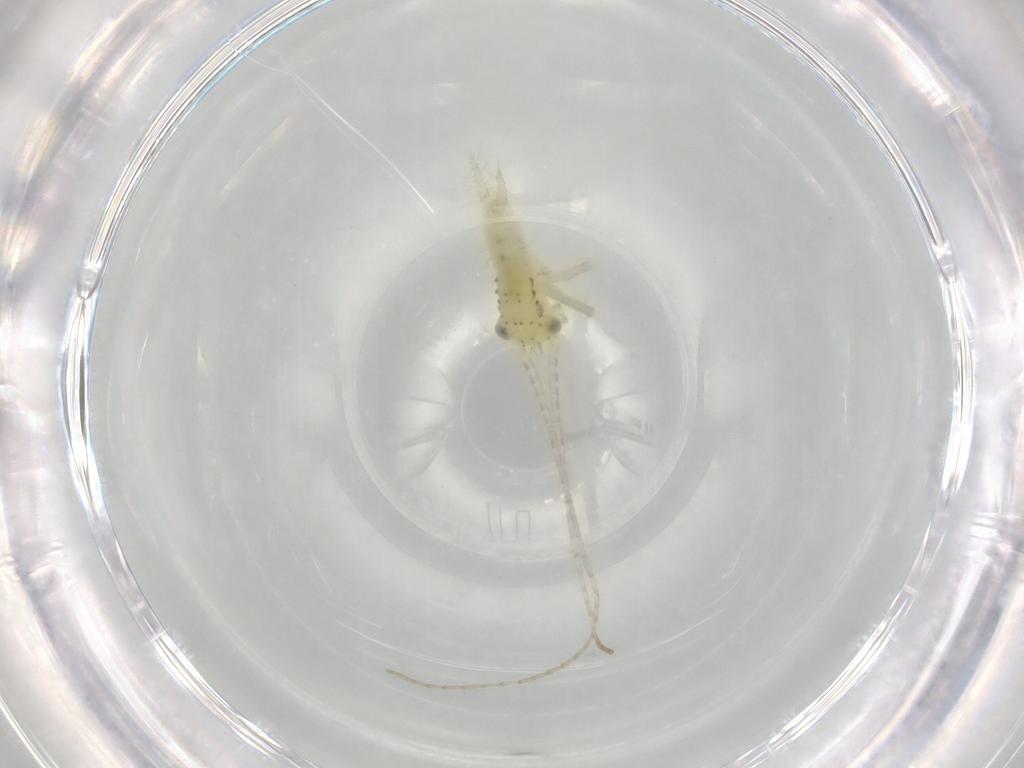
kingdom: Animalia
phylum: Arthropoda
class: Insecta
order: Orthoptera
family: Trigonidiidae
